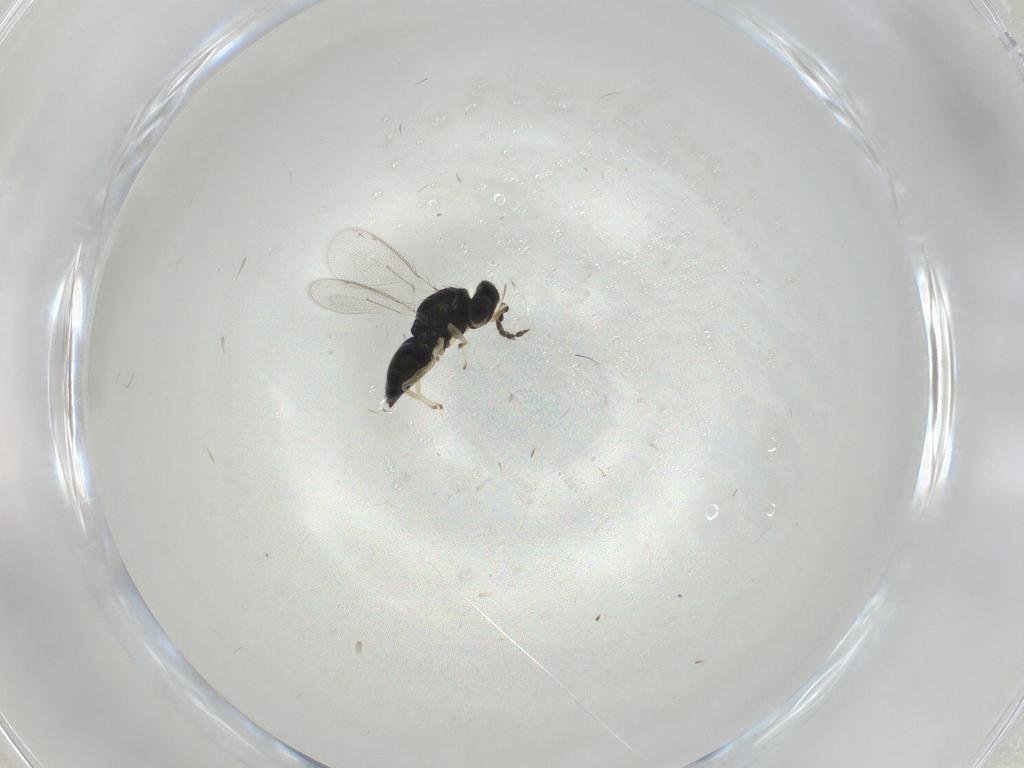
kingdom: Animalia
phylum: Arthropoda
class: Insecta
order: Hymenoptera
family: Eulophidae
